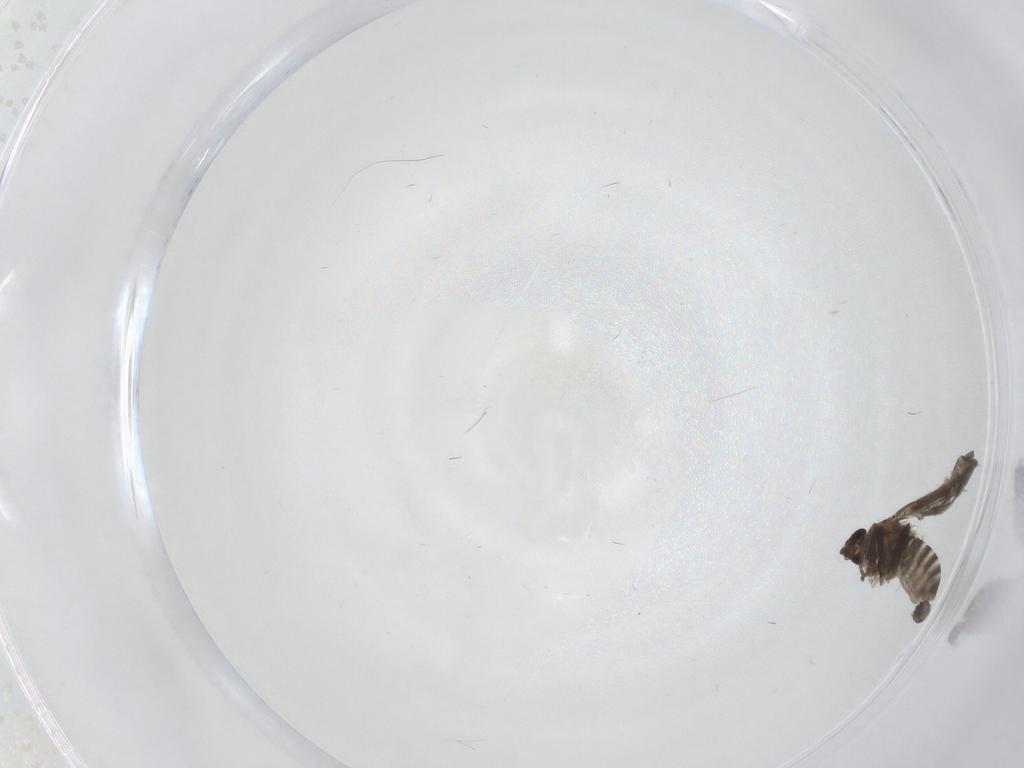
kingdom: Animalia
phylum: Arthropoda
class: Insecta
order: Diptera
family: Phoridae
